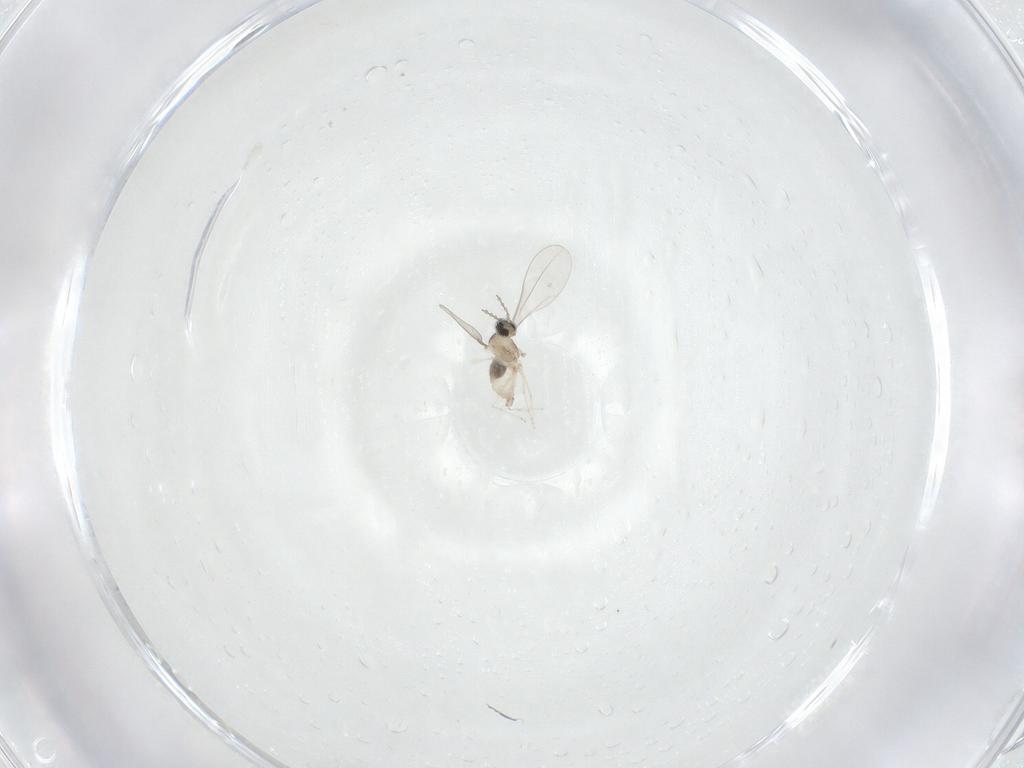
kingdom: Animalia
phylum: Arthropoda
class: Insecta
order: Diptera
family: Cecidomyiidae
